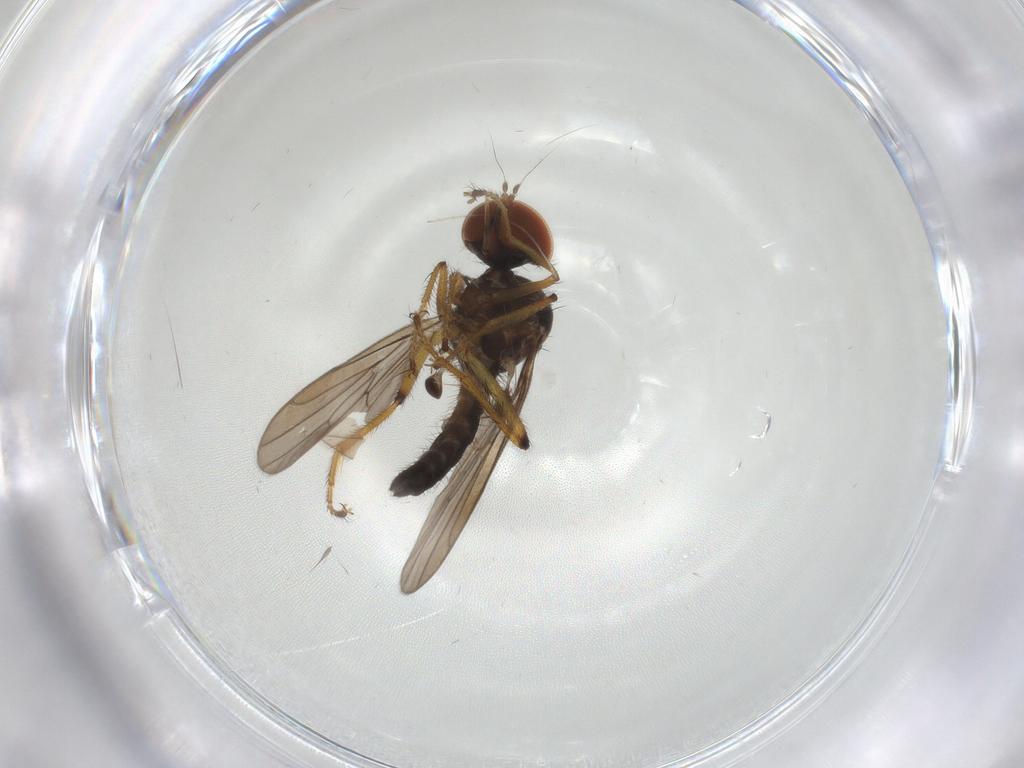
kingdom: Animalia
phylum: Arthropoda
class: Insecta
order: Diptera
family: Hybotidae
